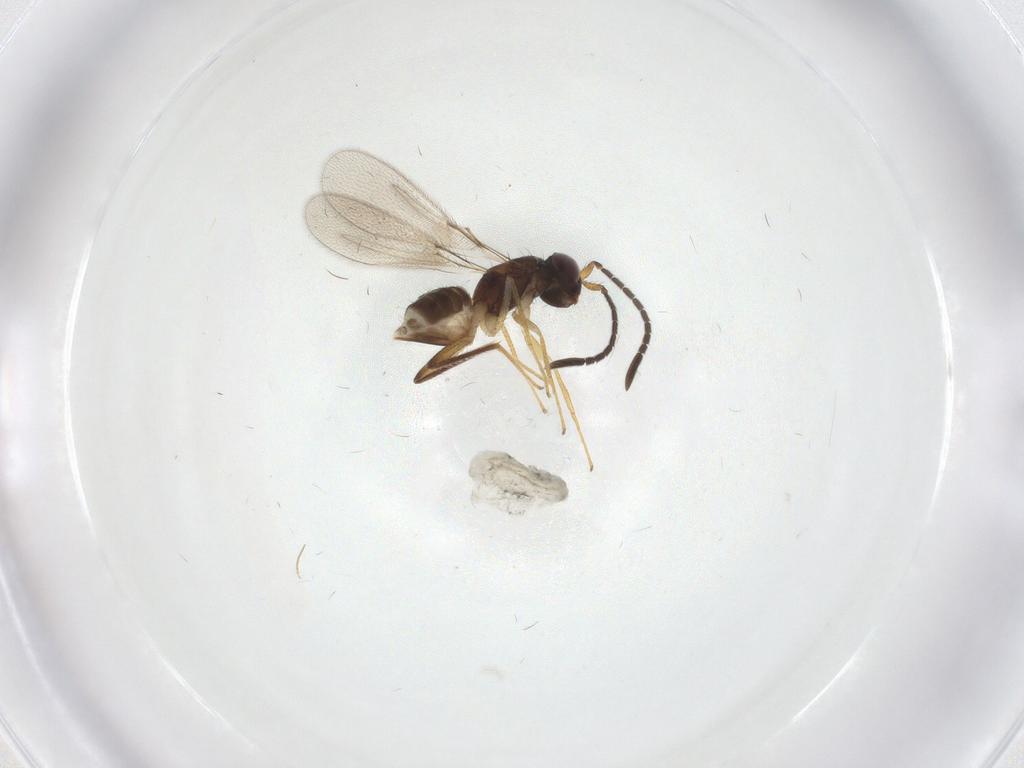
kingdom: Animalia
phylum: Arthropoda
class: Insecta
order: Hymenoptera
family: Mymaridae
